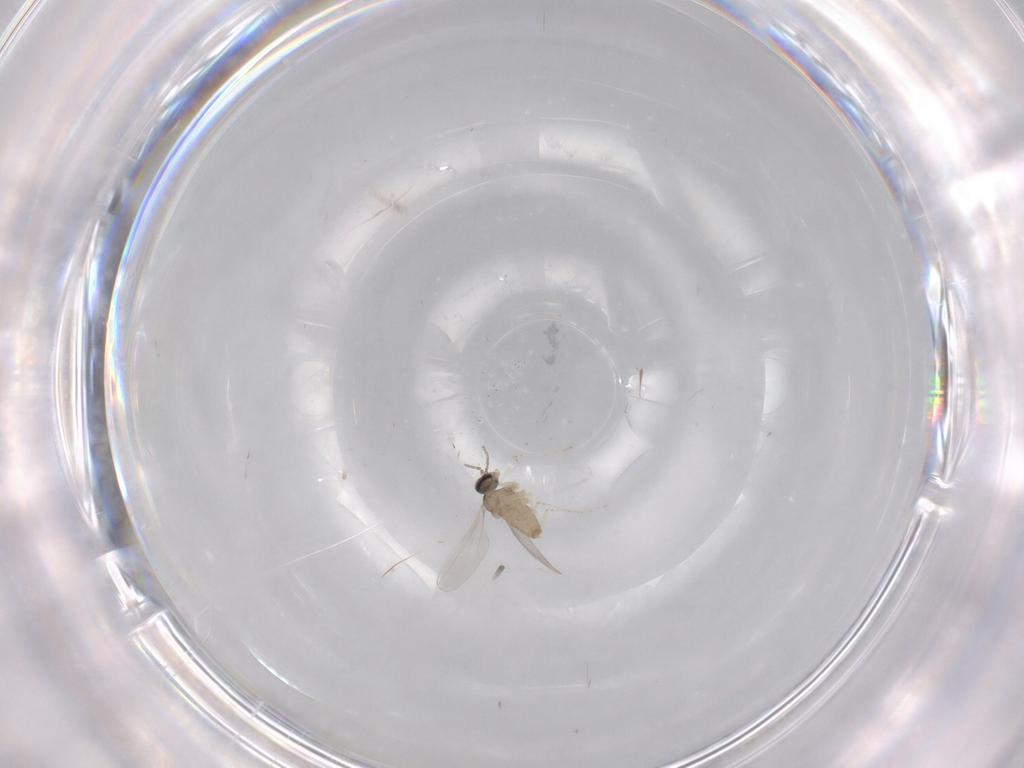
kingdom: Animalia
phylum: Arthropoda
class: Insecta
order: Diptera
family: Cecidomyiidae
